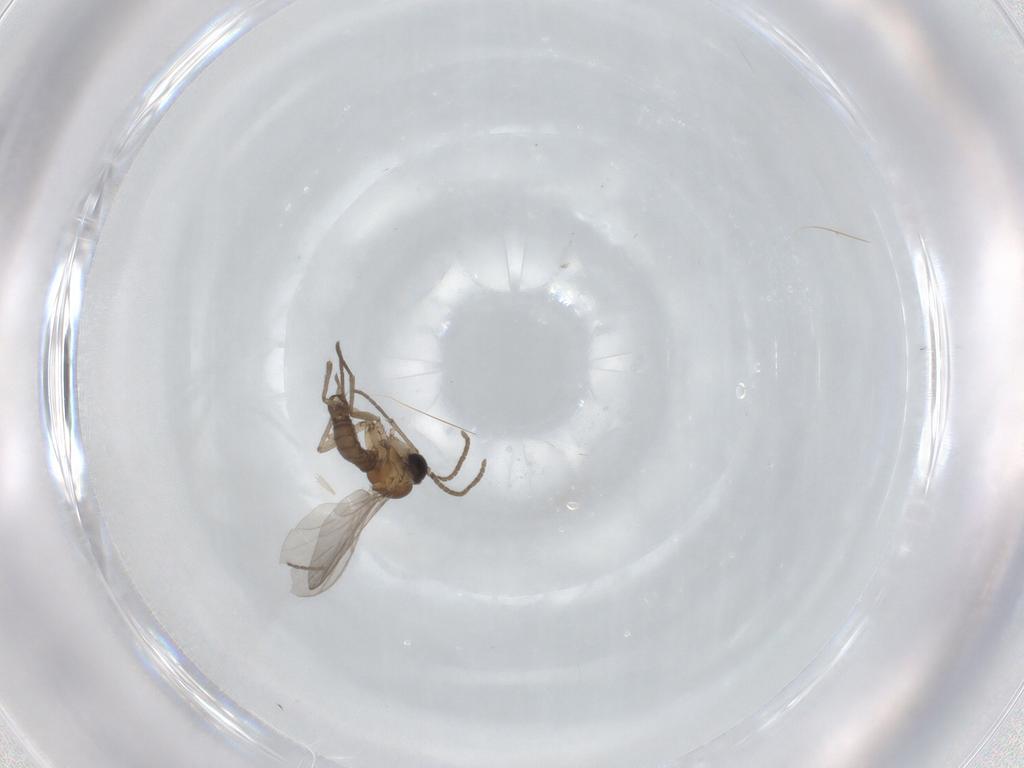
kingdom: Animalia
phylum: Arthropoda
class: Insecta
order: Diptera
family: Sciaridae
